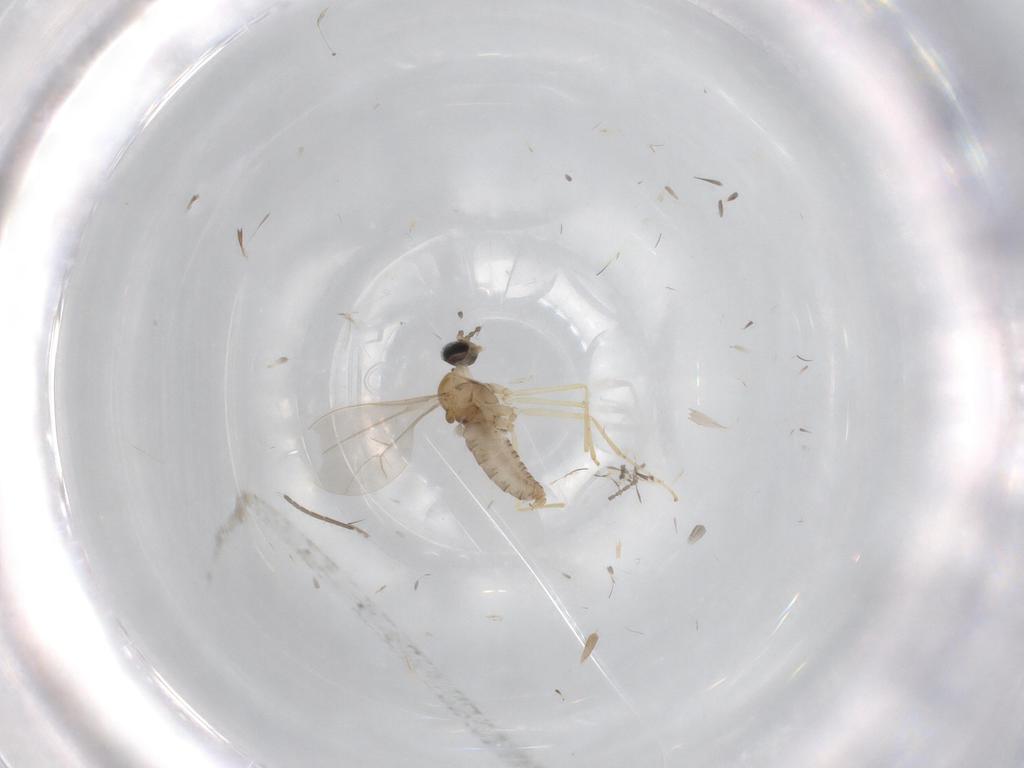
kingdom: Animalia
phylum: Arthropoda
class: Insecta
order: Diptera
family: Cecidomyiidae
